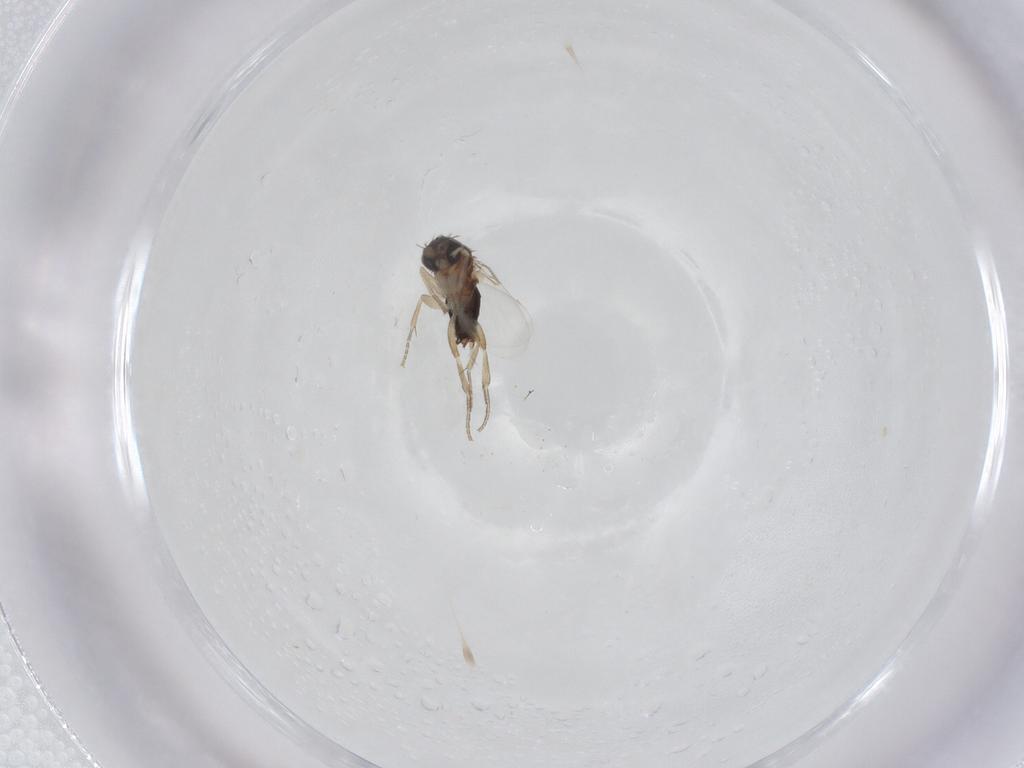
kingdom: Animalia
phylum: Arthropoda
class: Insecta
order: Diptera
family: Phoridae
